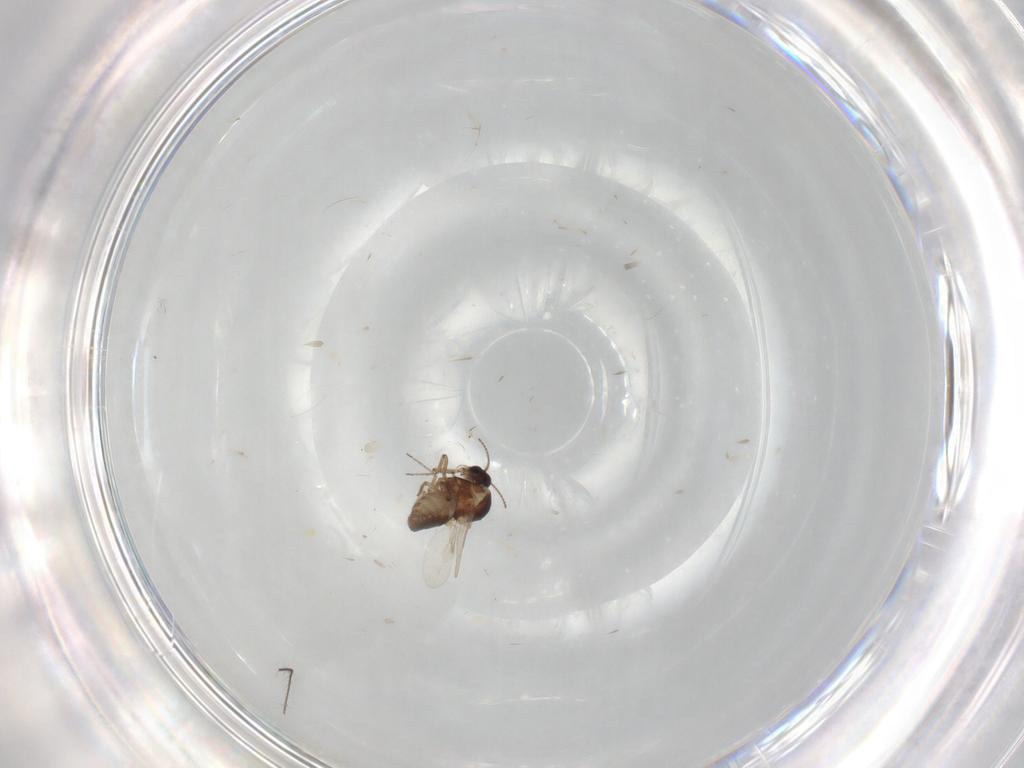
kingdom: Animalia
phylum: Arthropoda
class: Insecta
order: Diptera
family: Ceratopogonidae
